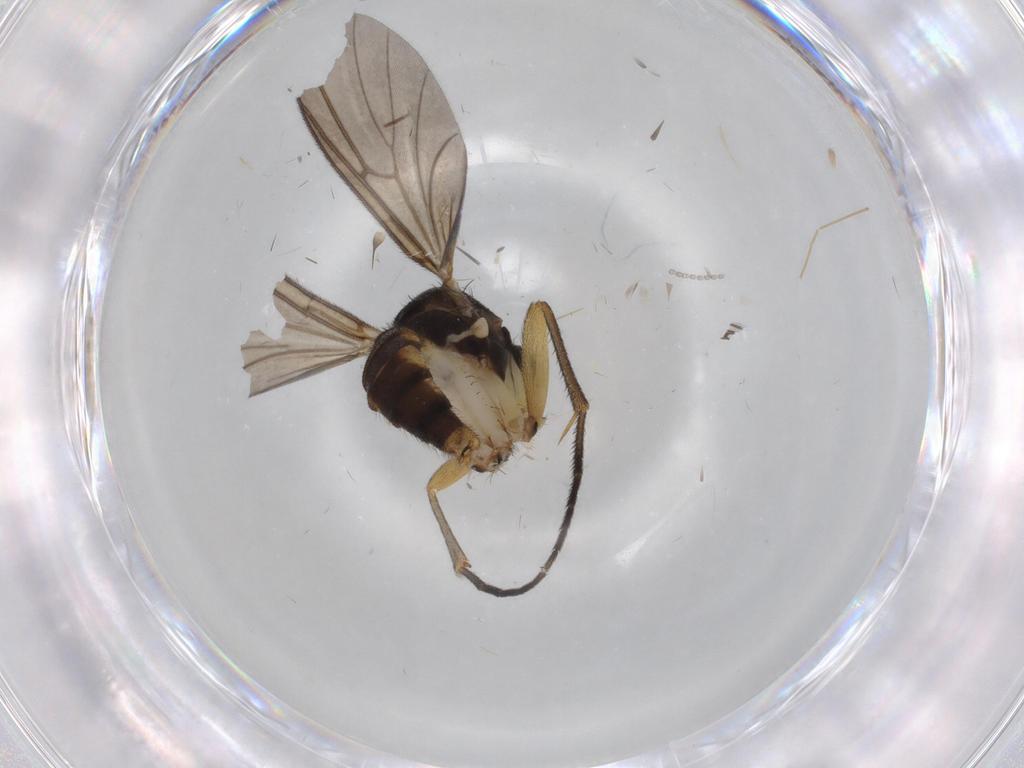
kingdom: Animalia
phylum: Arthropoda
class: Insecta
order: Diptera
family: Sciaridae
